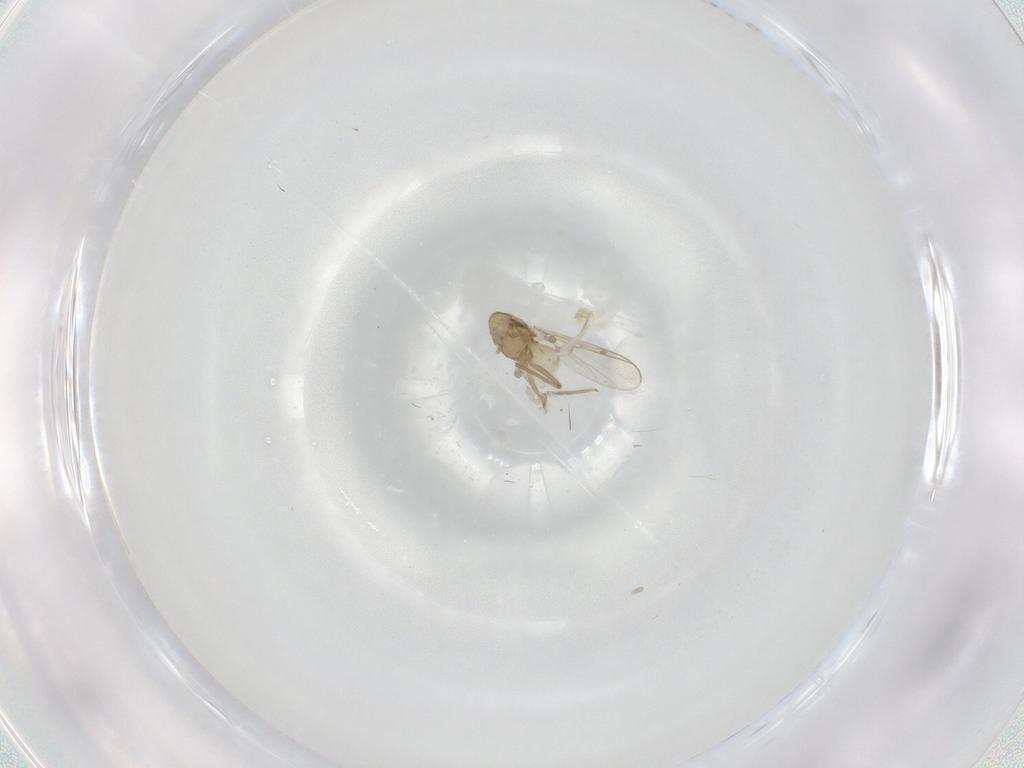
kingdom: Animalia
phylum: Arthropoda
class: Insecta
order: Diptera
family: Chironomidae
